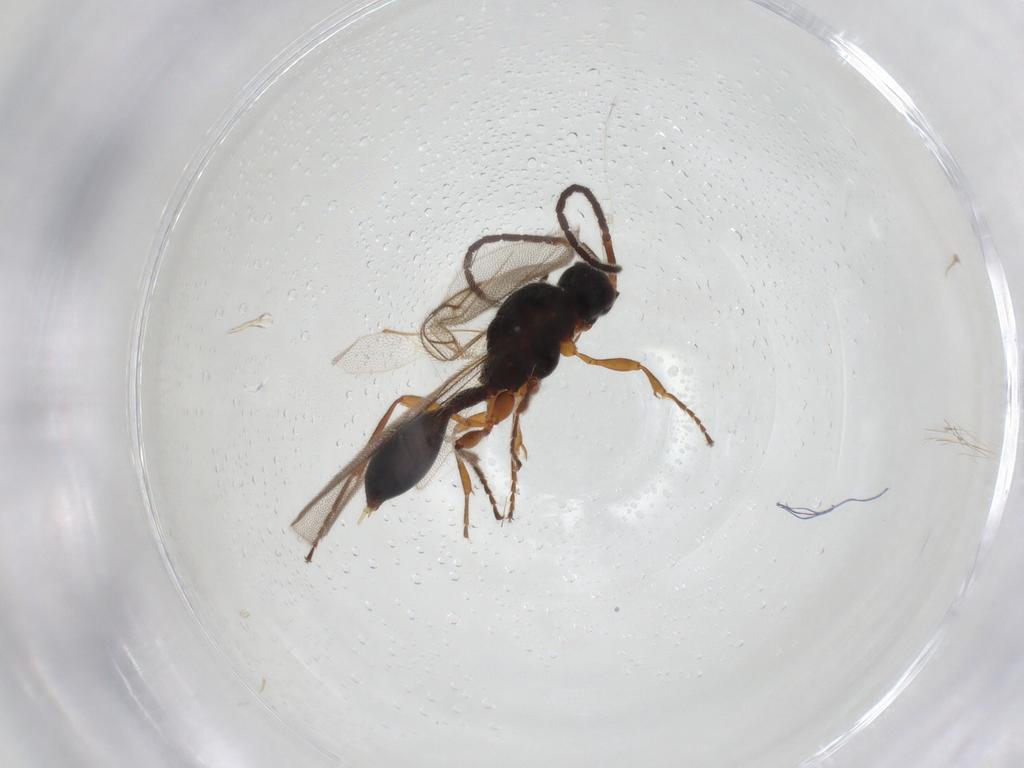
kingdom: Animalia
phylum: Arthropoda
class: Insecta
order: Hymenoptera
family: Diapriidae
